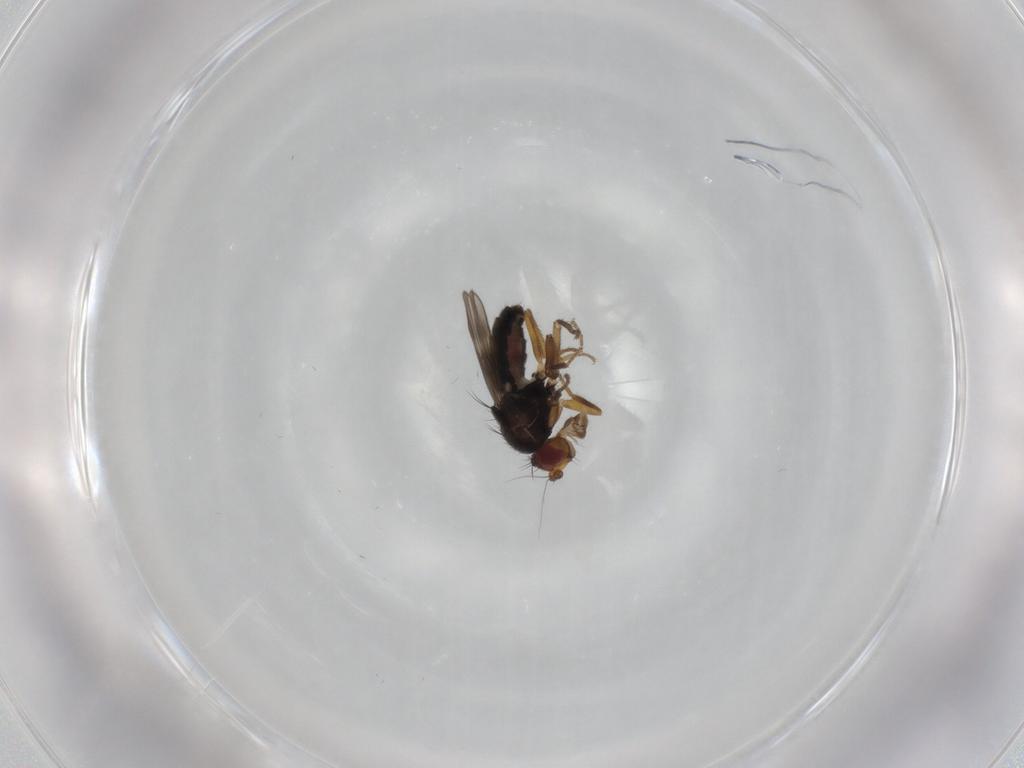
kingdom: Animalia
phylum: Arthropoda
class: Insecta
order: Diptera
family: Sphaeroceridae
